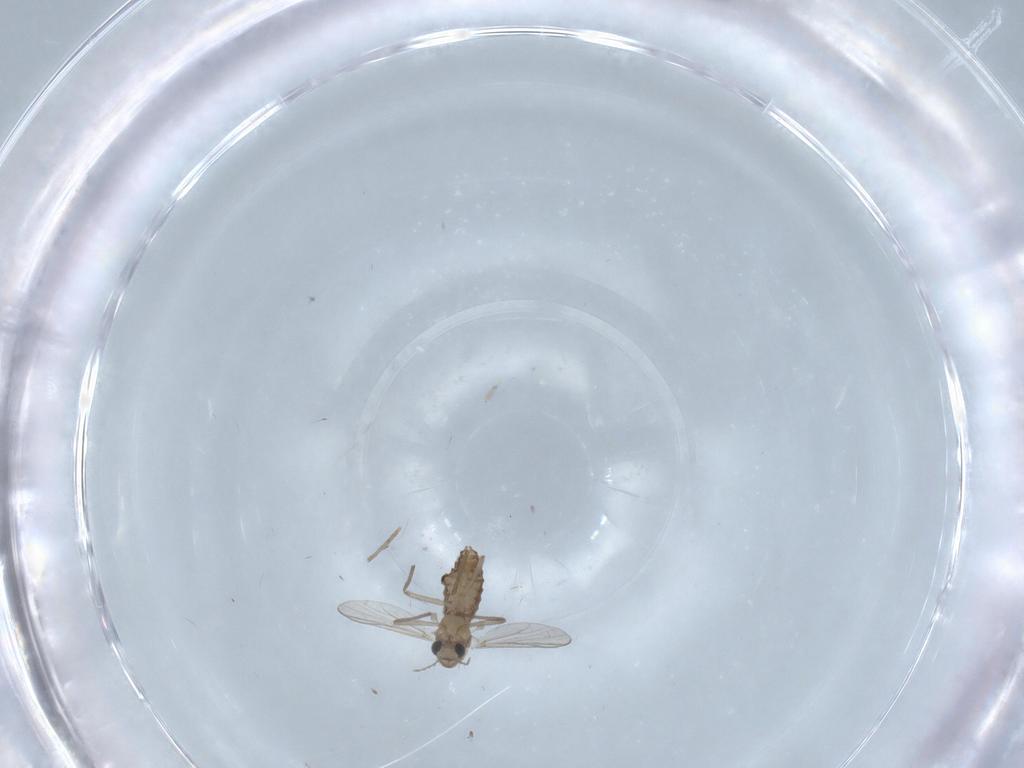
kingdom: Animalia
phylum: Arthropoda
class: Insecta
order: Diptera
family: Chironomidae
